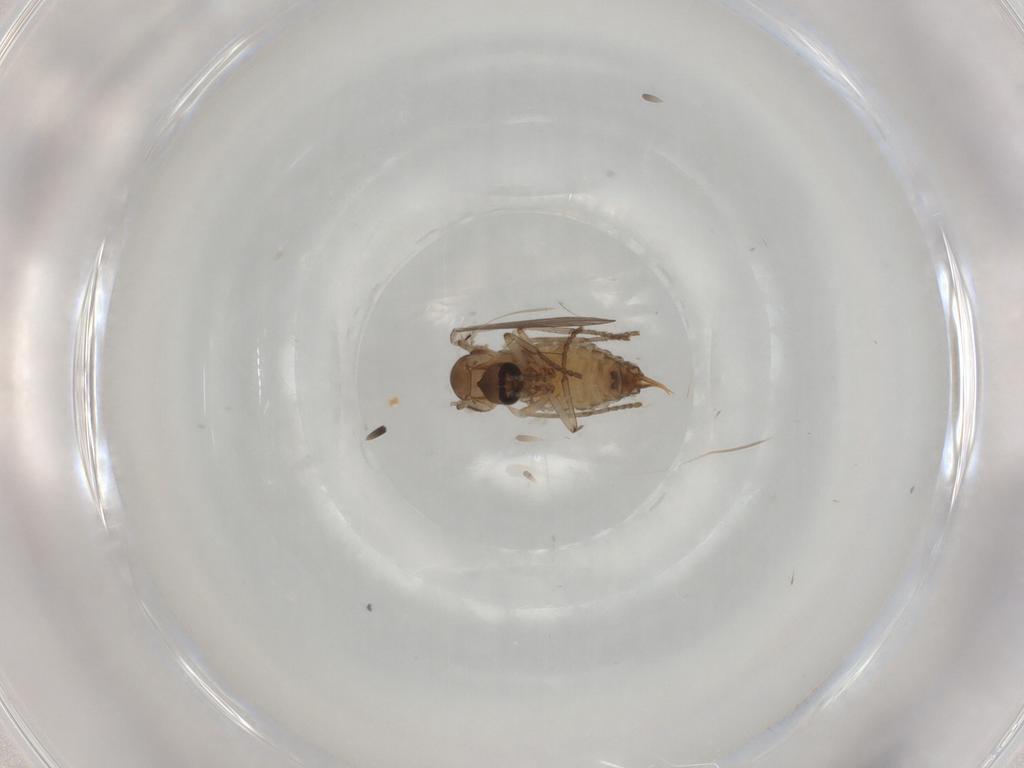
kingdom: Animalia
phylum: Arthropoda
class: Insecta
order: Diptera
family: Psychodidae
